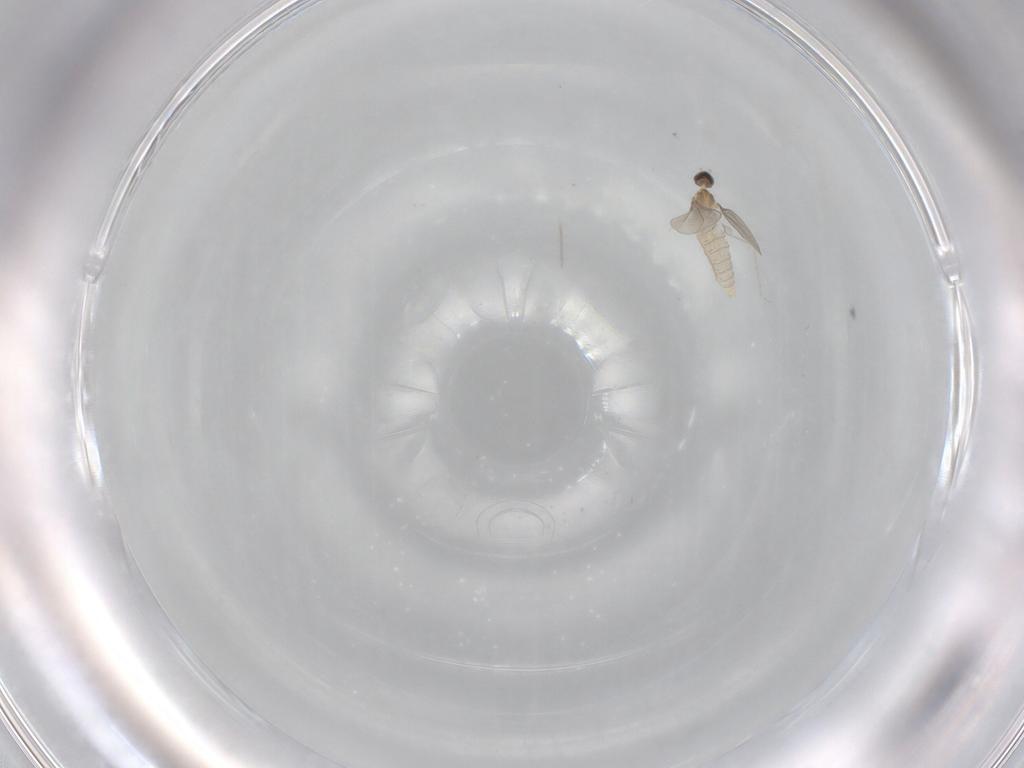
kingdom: Animalia
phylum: Arthropoda
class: Insecta
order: Diptera
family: Cecidomyiidae
